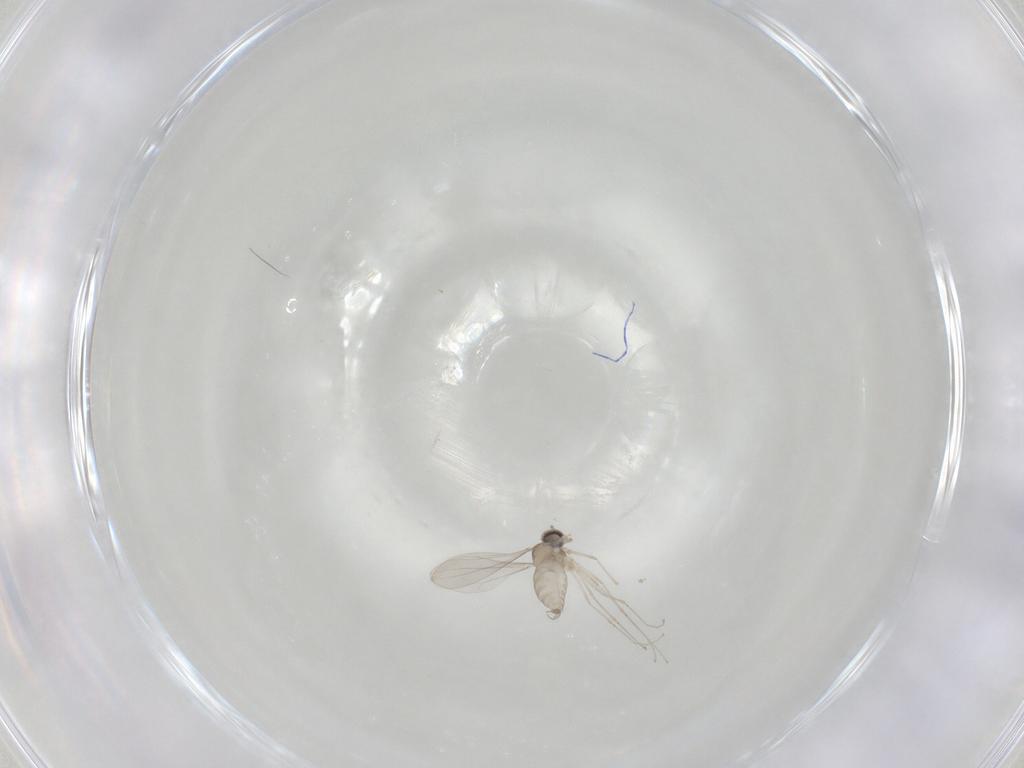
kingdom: Animalia
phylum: Arthropoda
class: Insecta
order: Diptera
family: Cecidomyiidae
